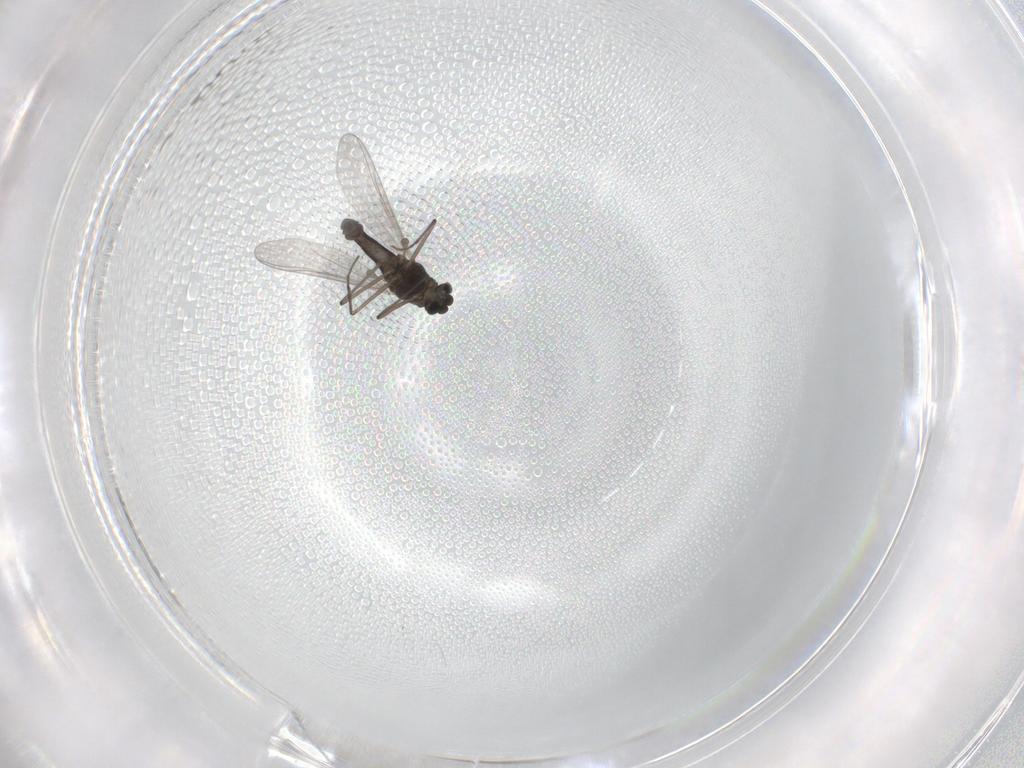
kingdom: Animalia
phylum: Arthropoda
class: Insecta
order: Diptera
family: Chironomidae
